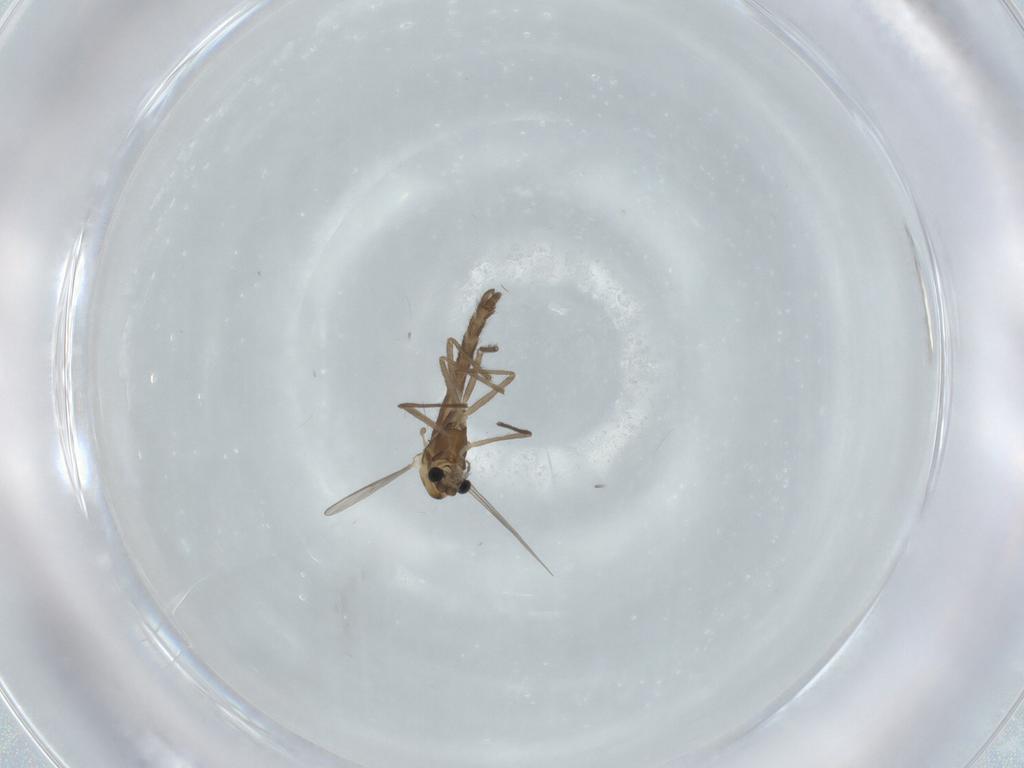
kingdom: Animalia
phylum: Arthropoda
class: Insecta
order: Diptera
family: Chironomidae
